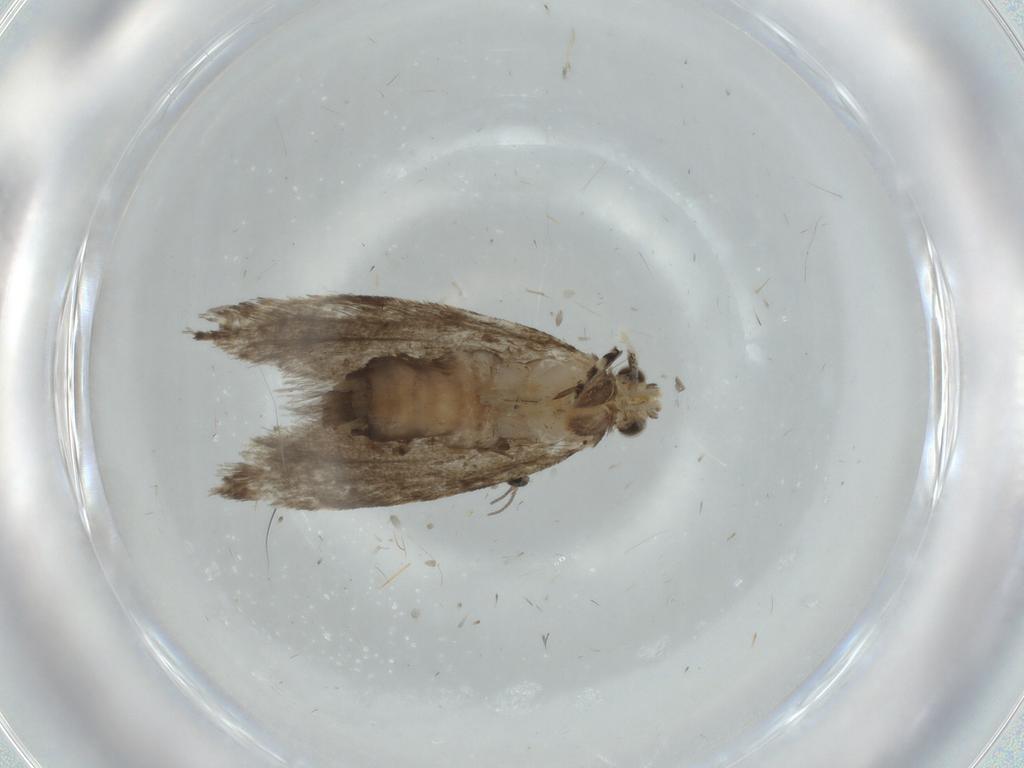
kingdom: Animalia
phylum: Arthropoda
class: Insecta
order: Lepidoptera
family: Tineidae
